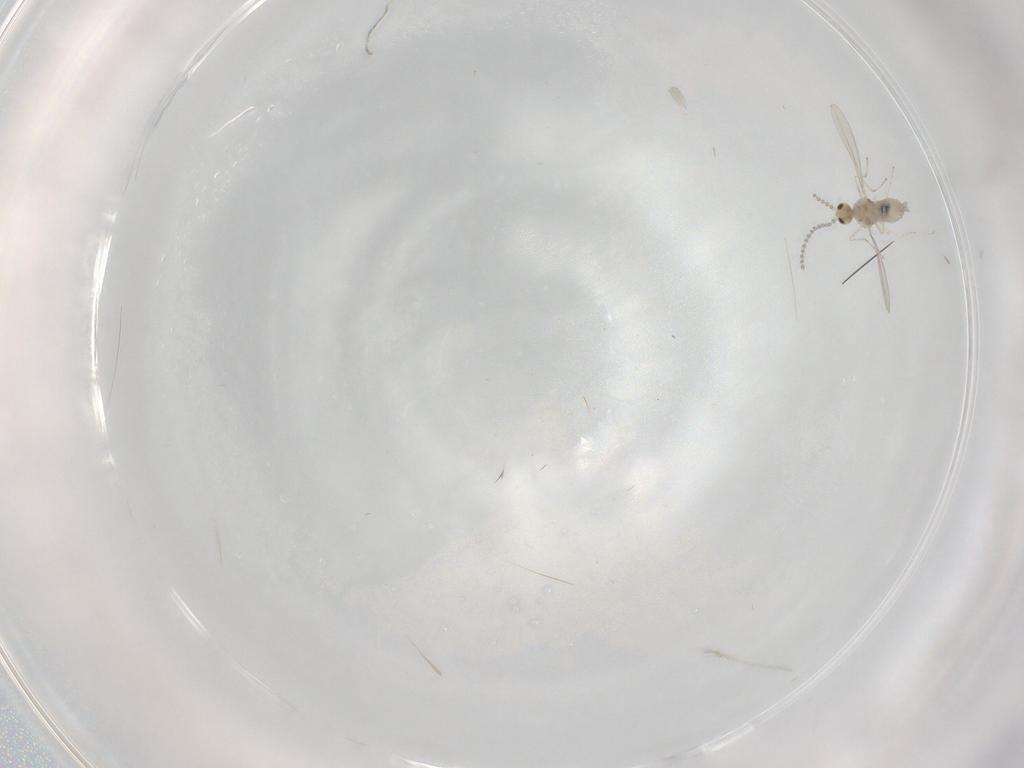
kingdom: Animalia
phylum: Arthropoda
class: Insecta
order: Diptera
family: Cecidomyiidae
